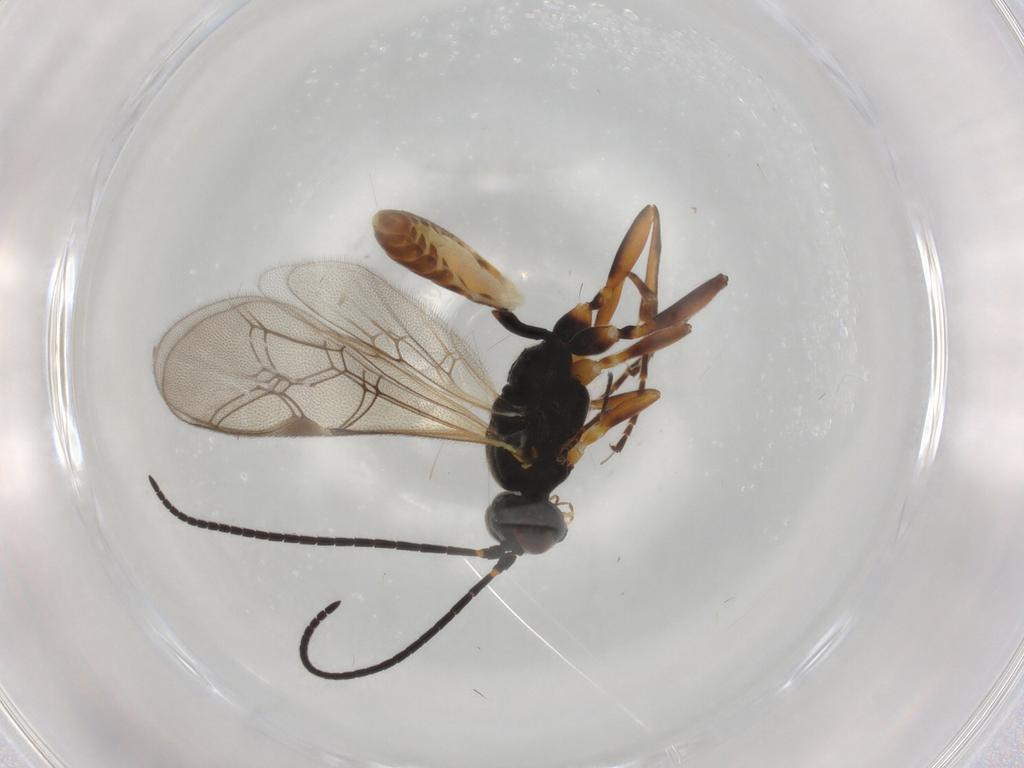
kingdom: Animalia
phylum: Arthropoda
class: Insecta
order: Hymenoptera
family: Ichneumonidae
